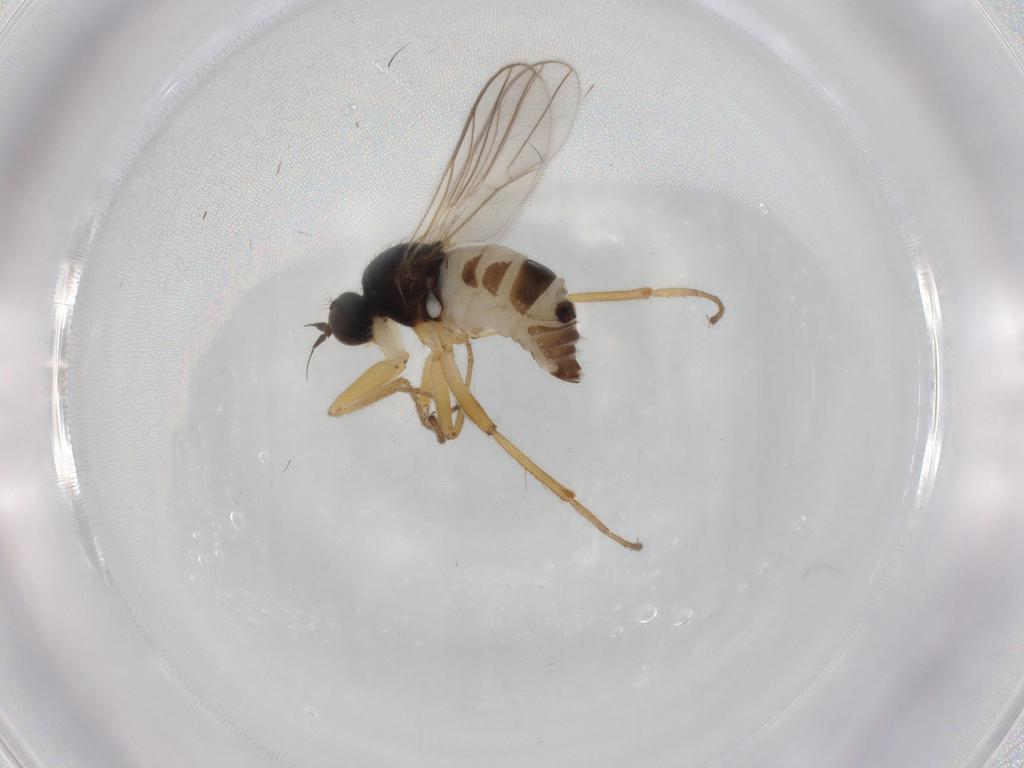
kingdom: Animalia
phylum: Arthropoda
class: Insecta
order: Diptera
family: Hybotidae
